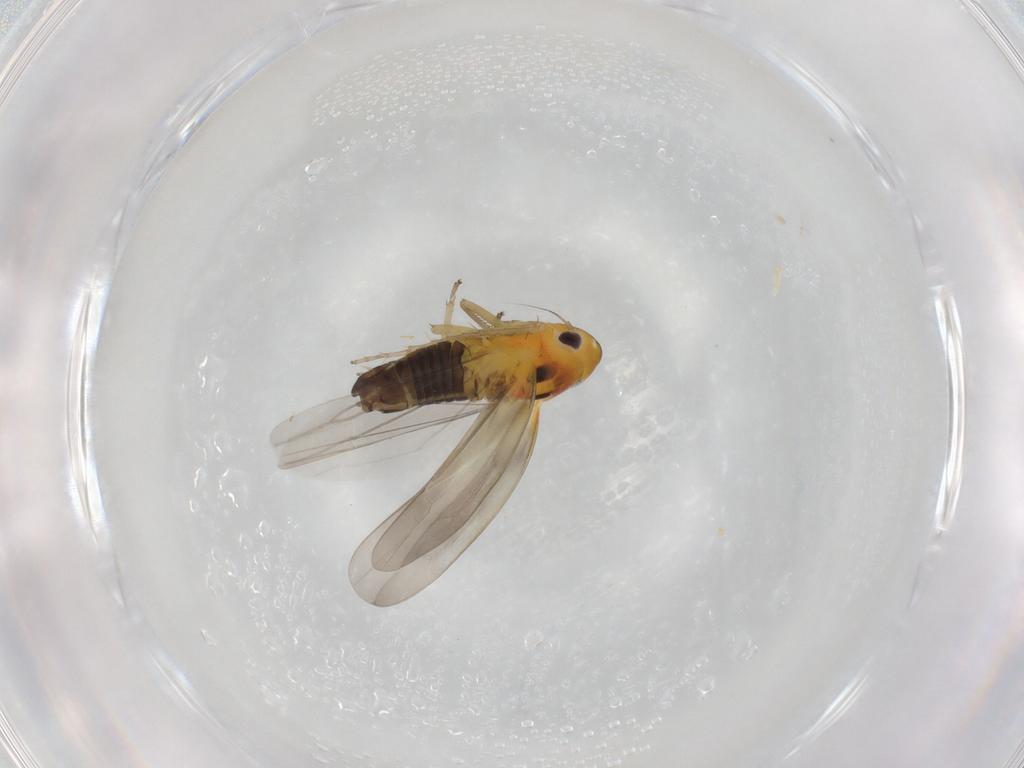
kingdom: Animalia
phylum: Arthropoda
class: Insecta
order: Hemiptera
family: Cicadellidae
